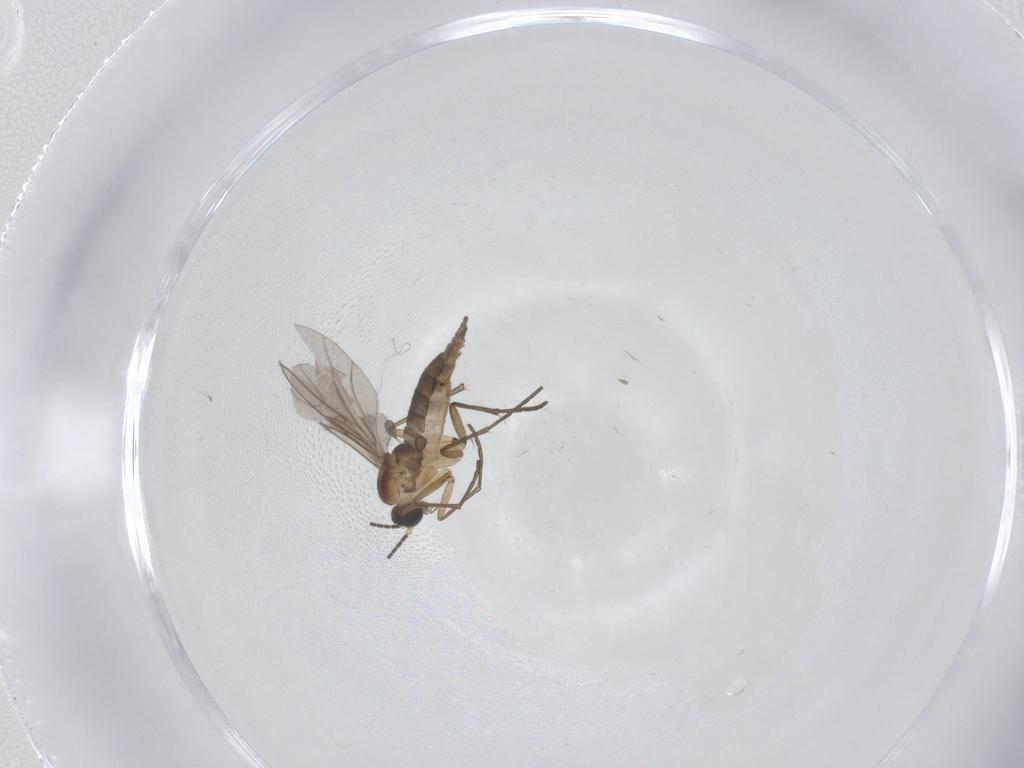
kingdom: Animalia
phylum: Arthropoda
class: Insecta
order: Diptera
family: Sciaridae
